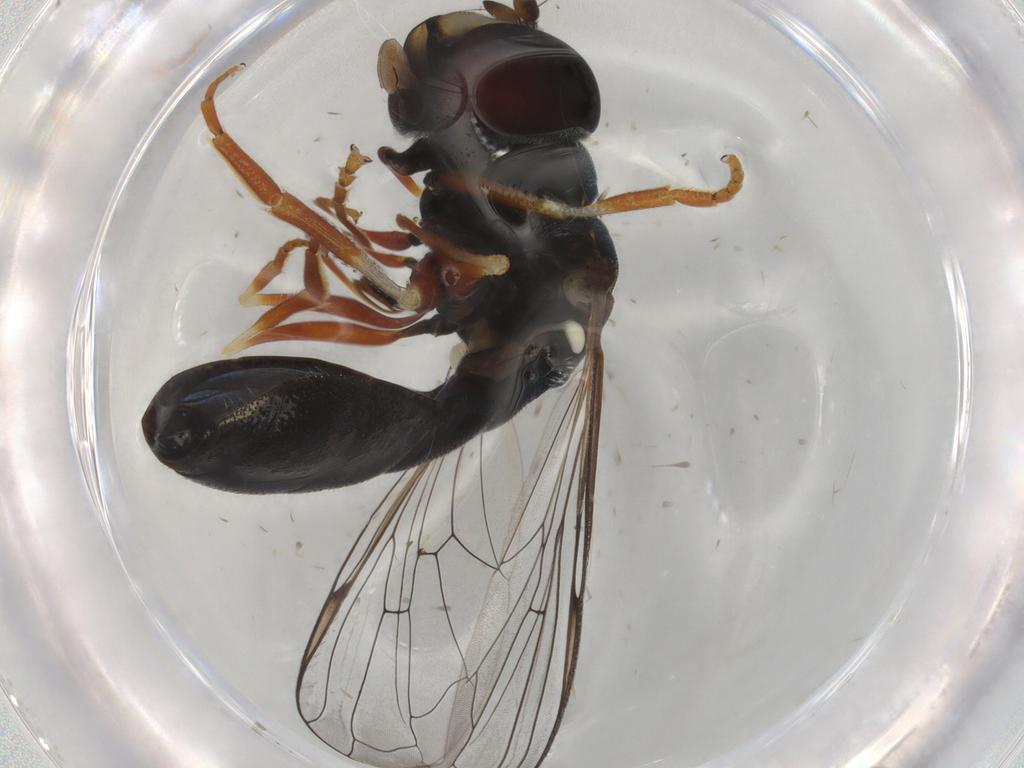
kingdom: Animalia
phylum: Arthropoda
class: Insecta
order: Diptera
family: Cecidomyiidae
